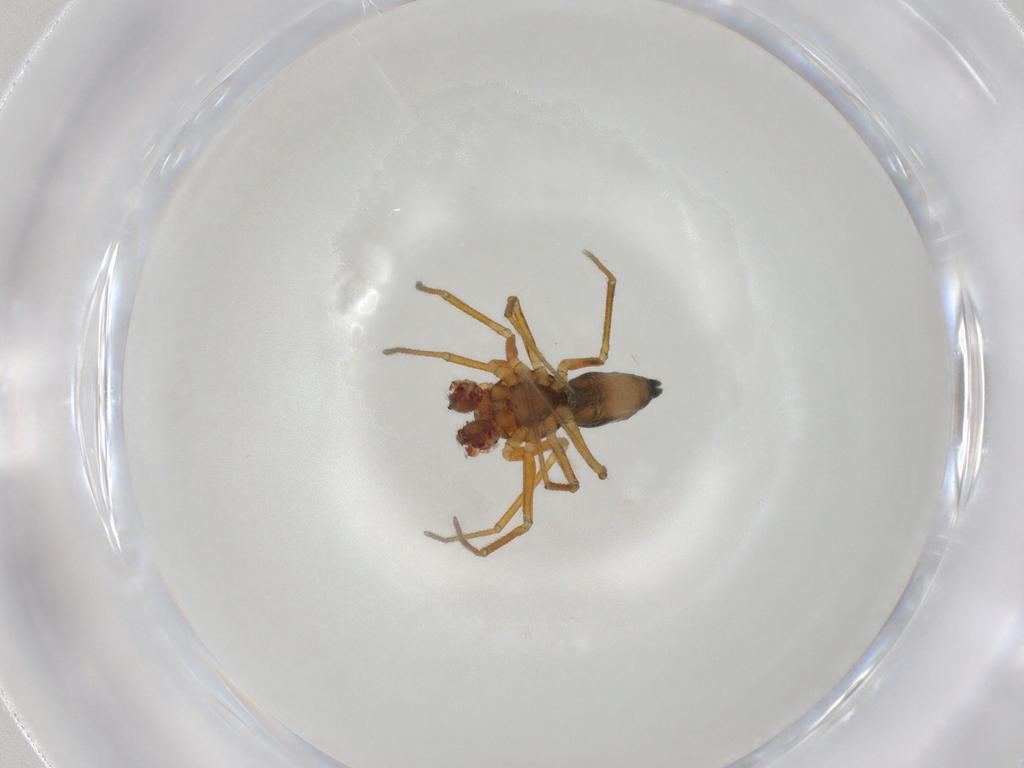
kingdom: Animalia
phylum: Arthropoda
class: Arachnida
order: Araneae
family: Linyphiidae
